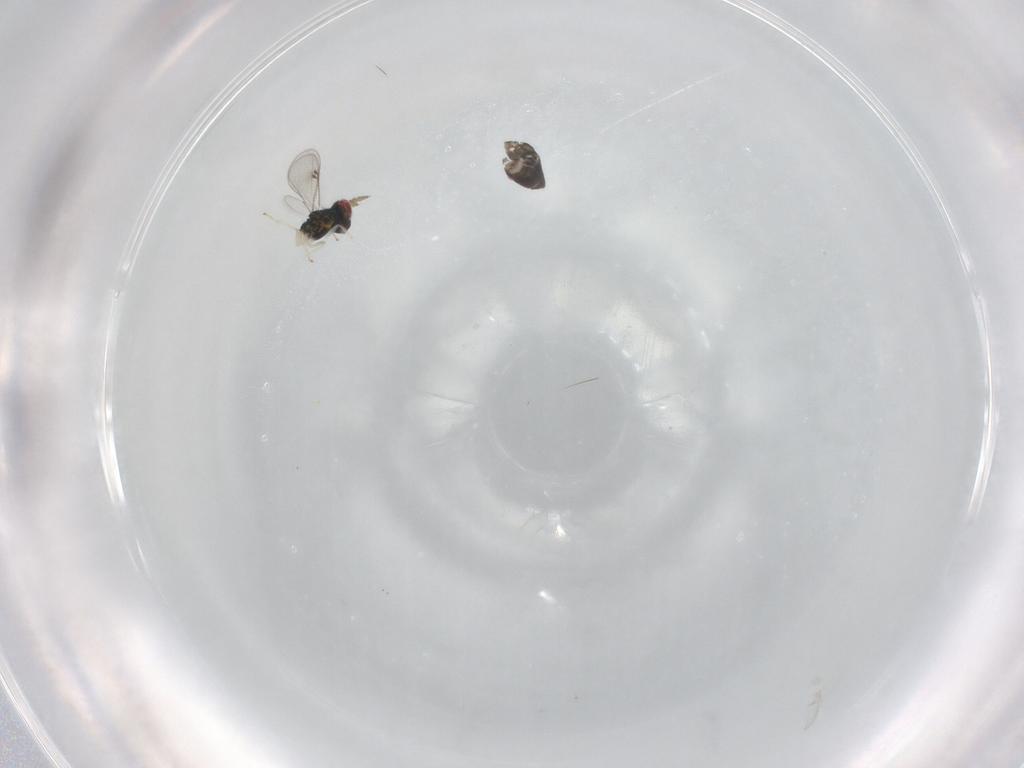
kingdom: Animalia
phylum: Arthropoda
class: Insecta
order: Hymenoptera
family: Eulophidae
